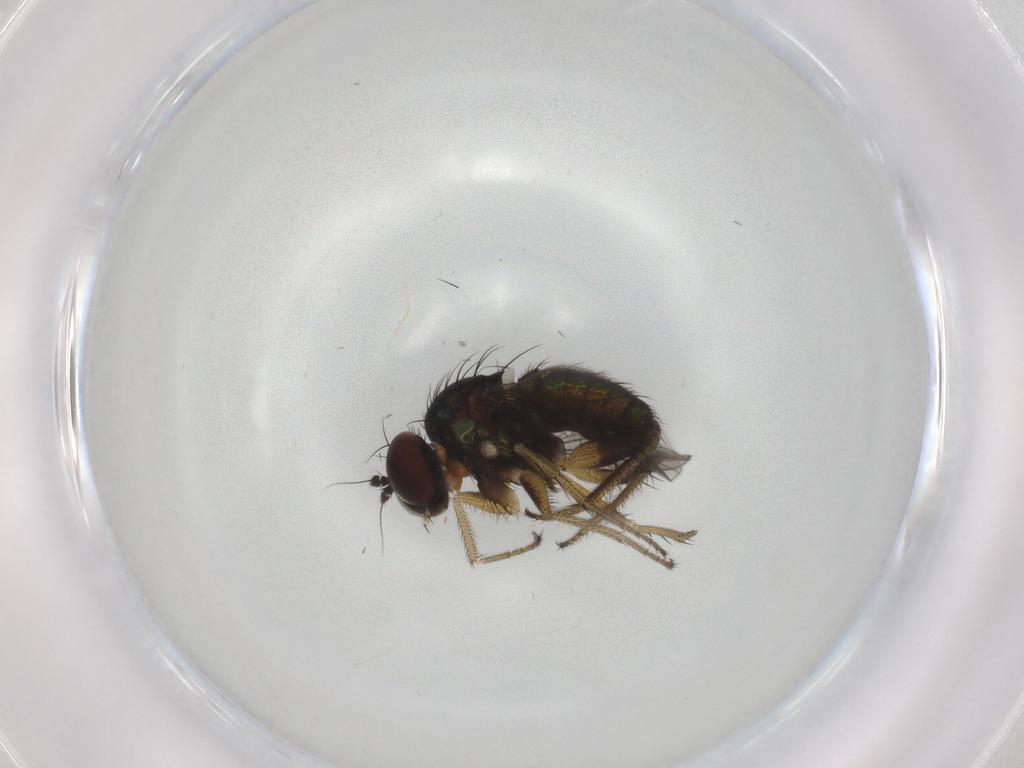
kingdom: Animalia
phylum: Arthropoda
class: Insecta
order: Diptera
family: Dolichopodidae
